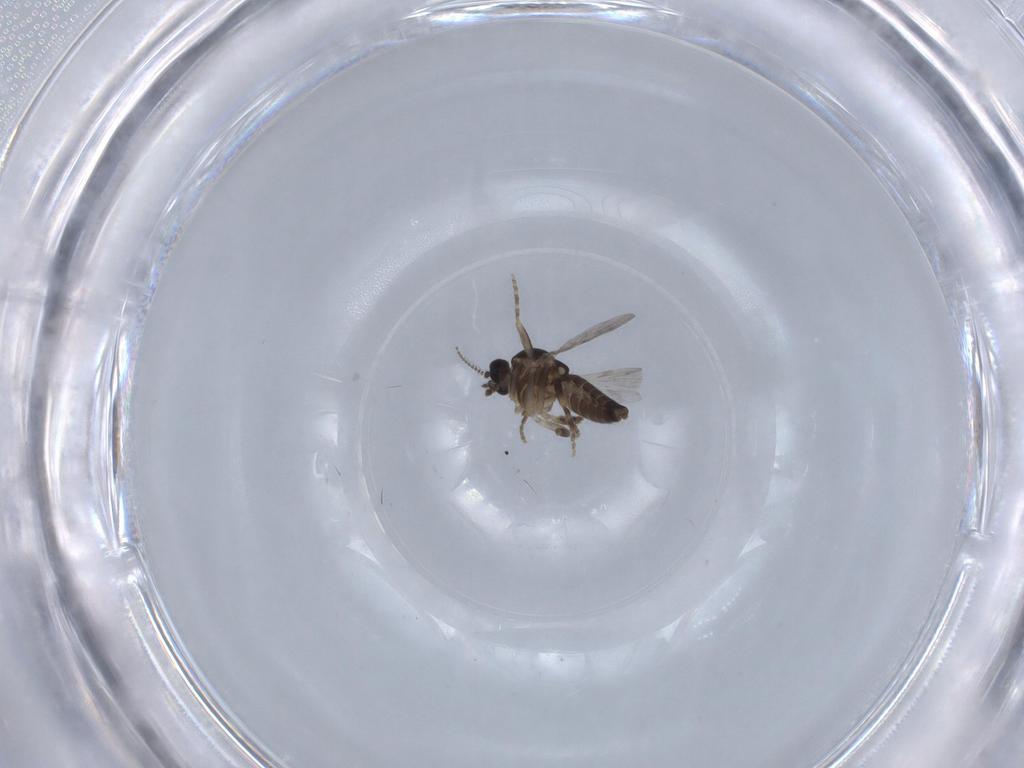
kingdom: Animalia
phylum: Arthropoda
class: Insecta
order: Diptera
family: Ceratopogonidae
